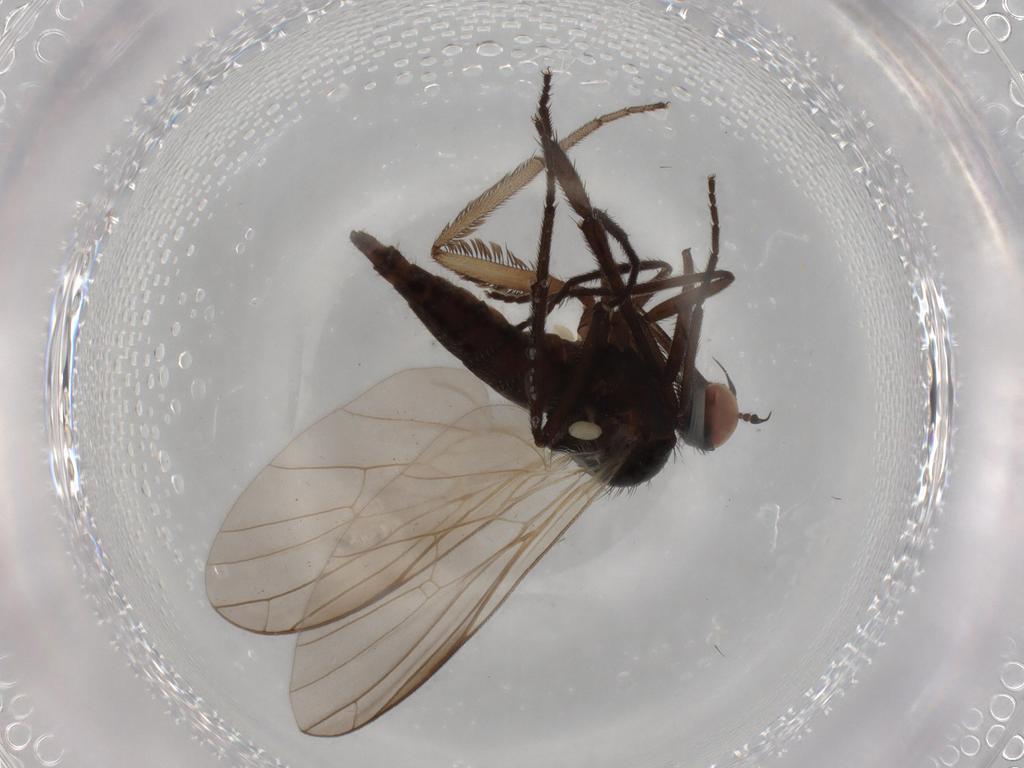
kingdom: Animalia
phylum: Arthropoda
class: Insecta
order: Diptera
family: Empididae
